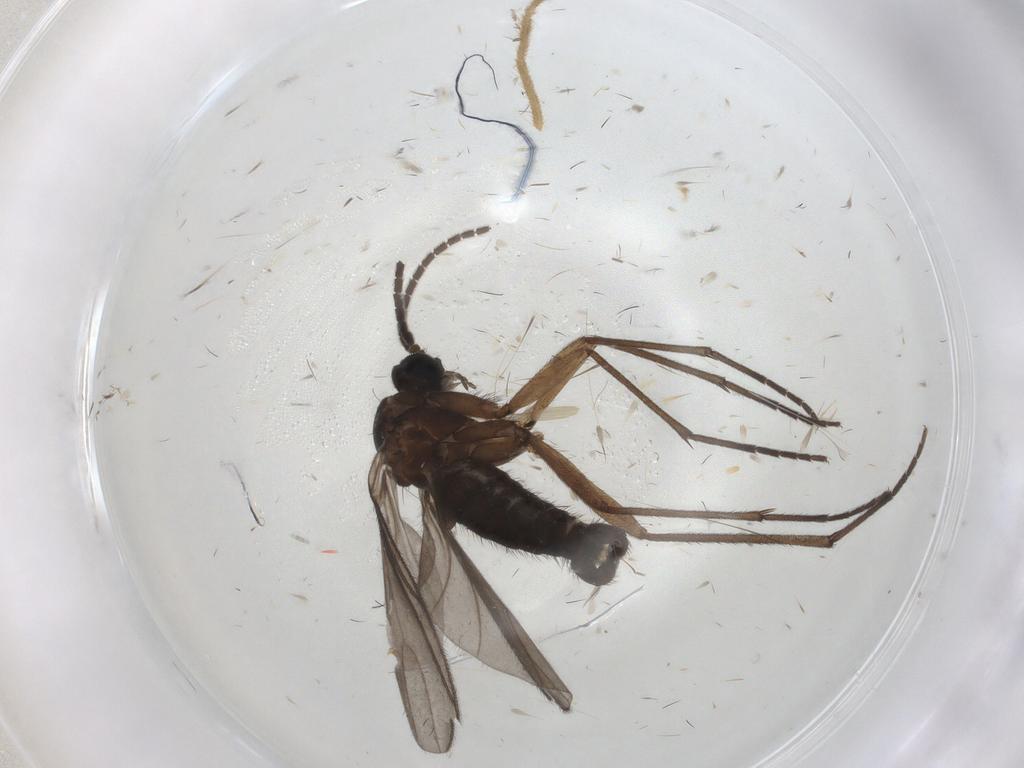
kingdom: Animalia
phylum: Arthropoda
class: Insecta
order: Diptera
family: Sciaridae
